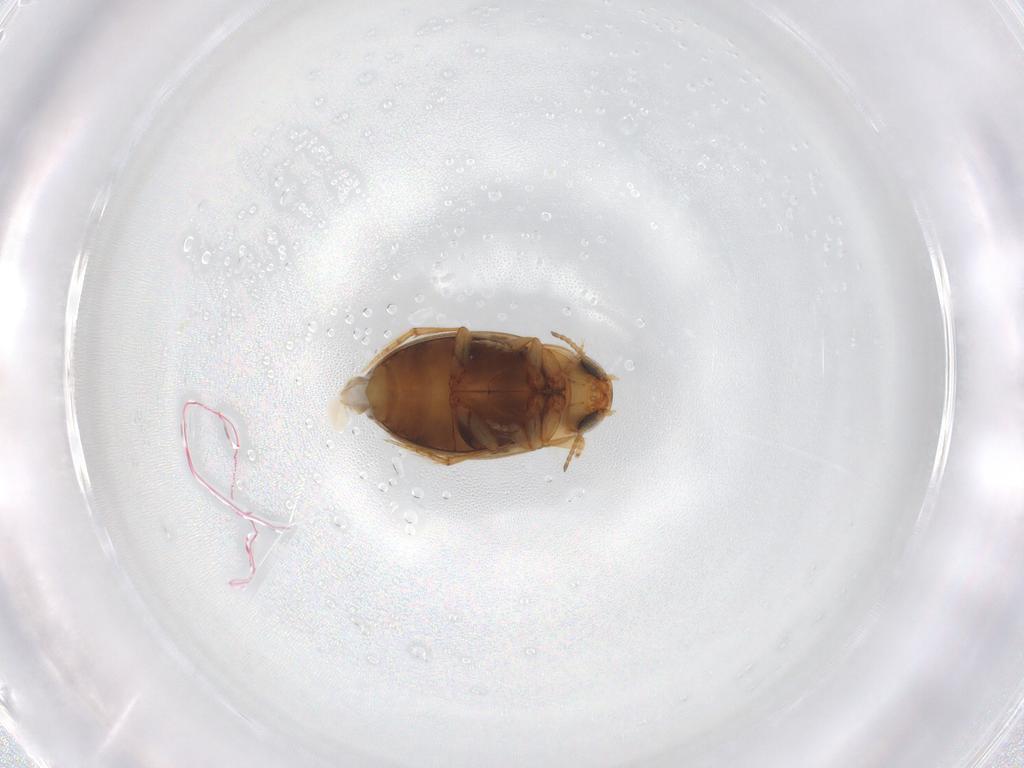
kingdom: Animalia
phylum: Arthropoda
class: Insecta
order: Coleoptera
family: Dytiscidae
